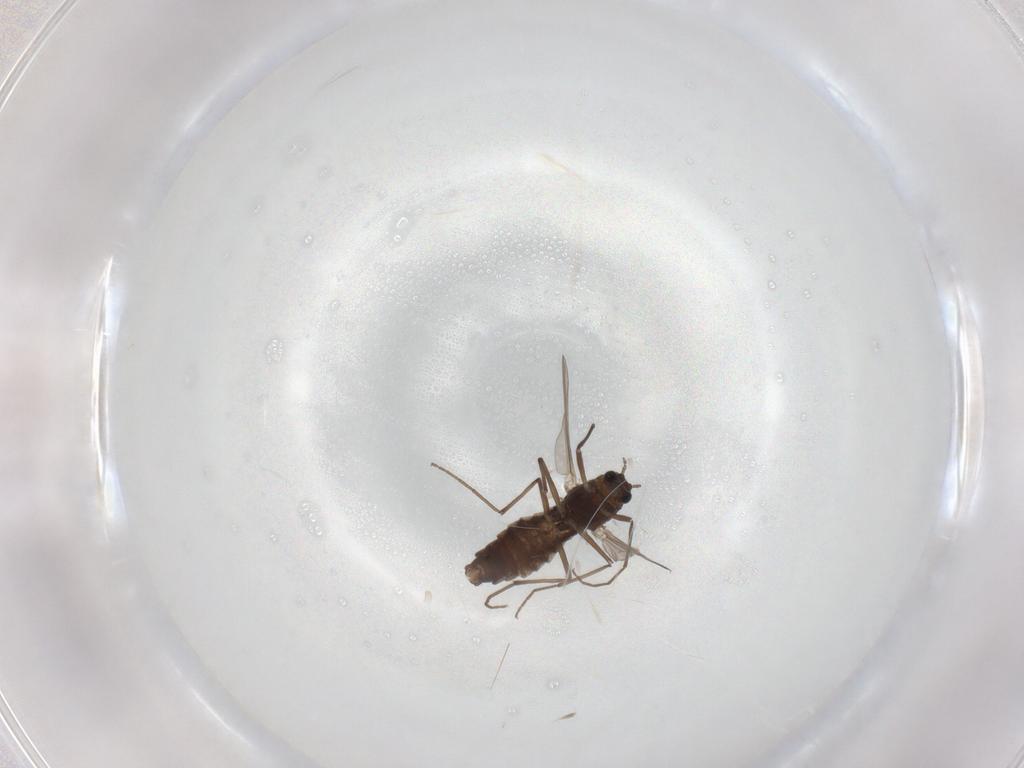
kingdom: Animalia
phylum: Arthropoda
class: Insecta
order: Diptera
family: Chironomidae
